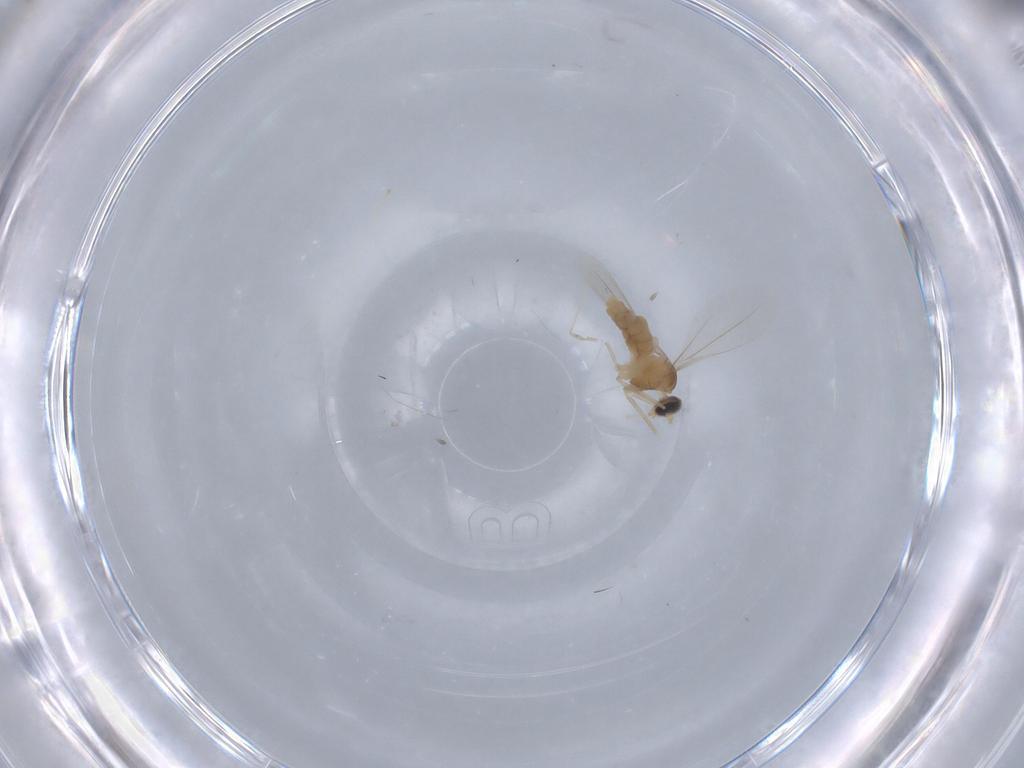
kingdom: Animalia
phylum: Arthropoda
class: Insecta
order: Diptera
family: Cecidomyiidae
